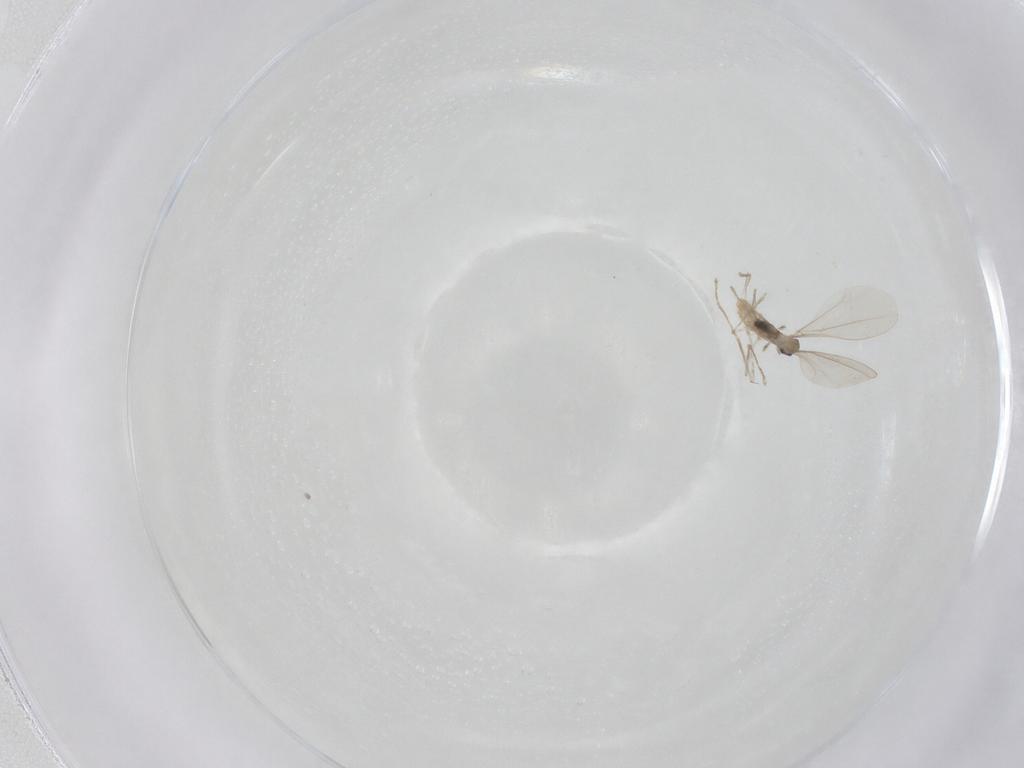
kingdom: Animalia
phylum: Arthropoda
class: Insecta
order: Diptera
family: Cecidomyiidae
